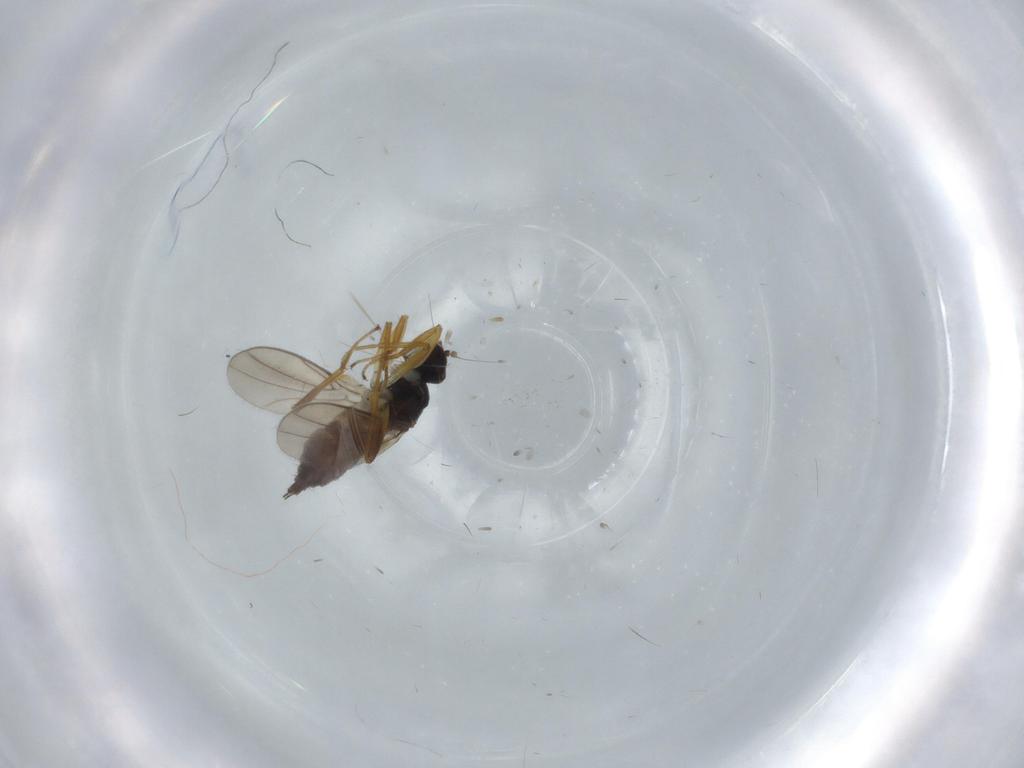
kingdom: Animalia
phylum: Arthropoda
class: Insecta
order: Diptera
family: Hybotidae
